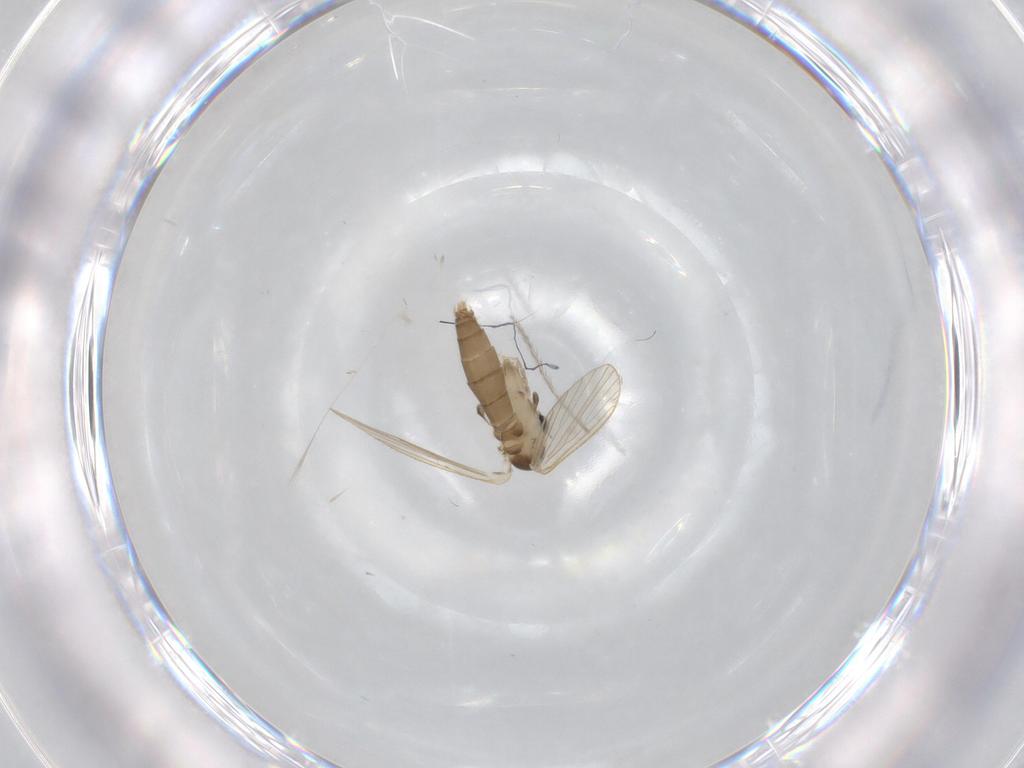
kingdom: Animalia
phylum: Arthropoda
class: Insecta
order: Diptera
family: Psychodidae
